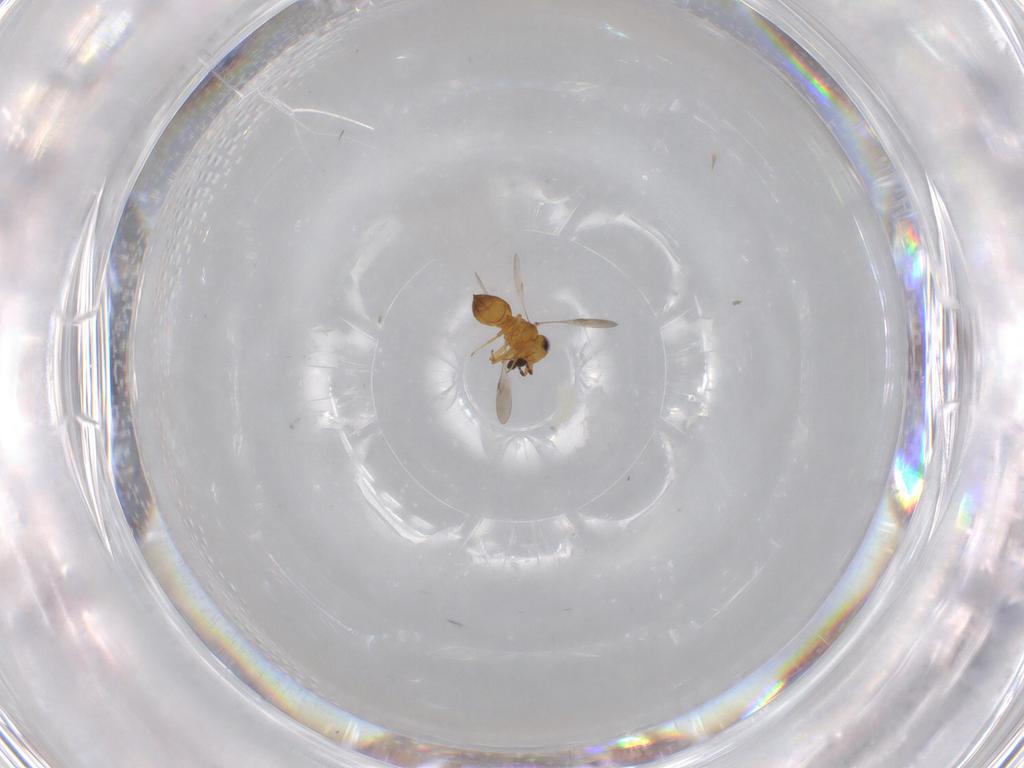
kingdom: Animalia
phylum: Arthropoda
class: Insecta
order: Hymenoptera
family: Scelionidae
